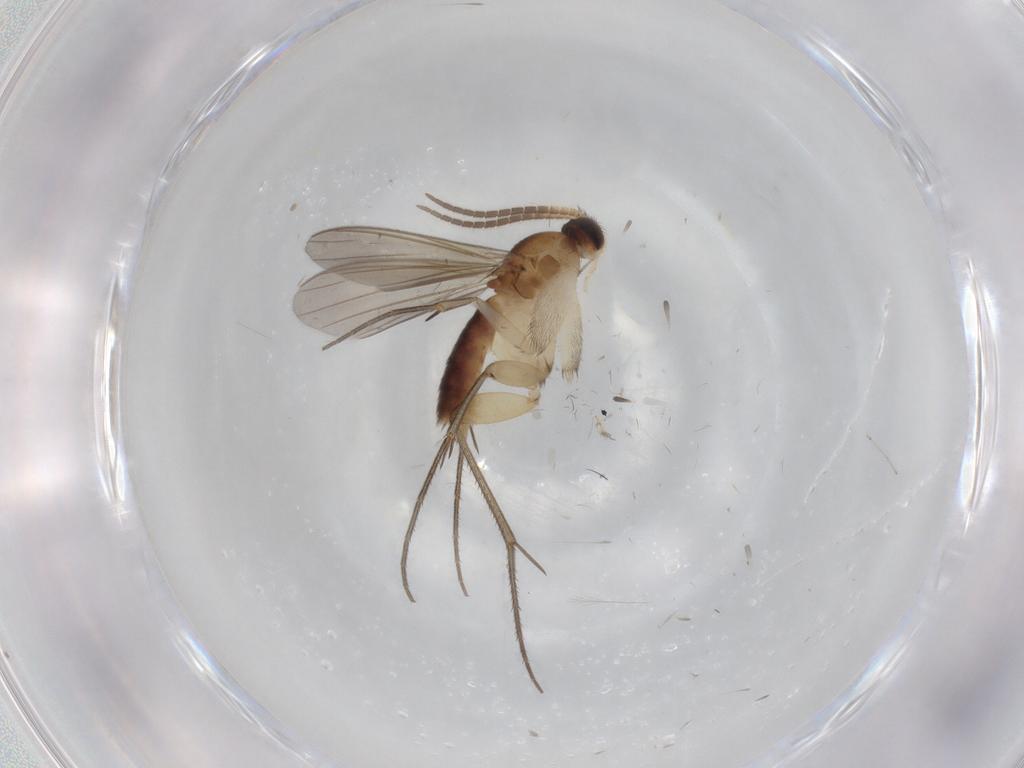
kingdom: Animalia
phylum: Arthropoda
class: Insecta
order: Diptera
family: Mycetophilidae
